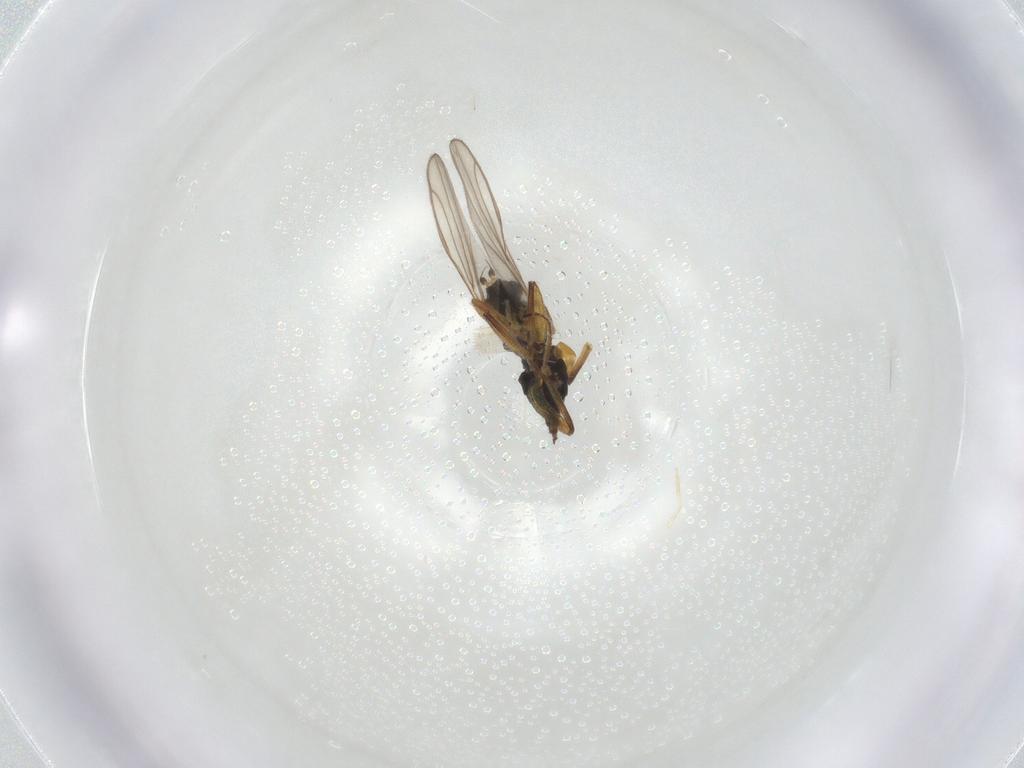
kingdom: Animalia
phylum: Arthropoda
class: Insecta
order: Diptera
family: Hybotidae
